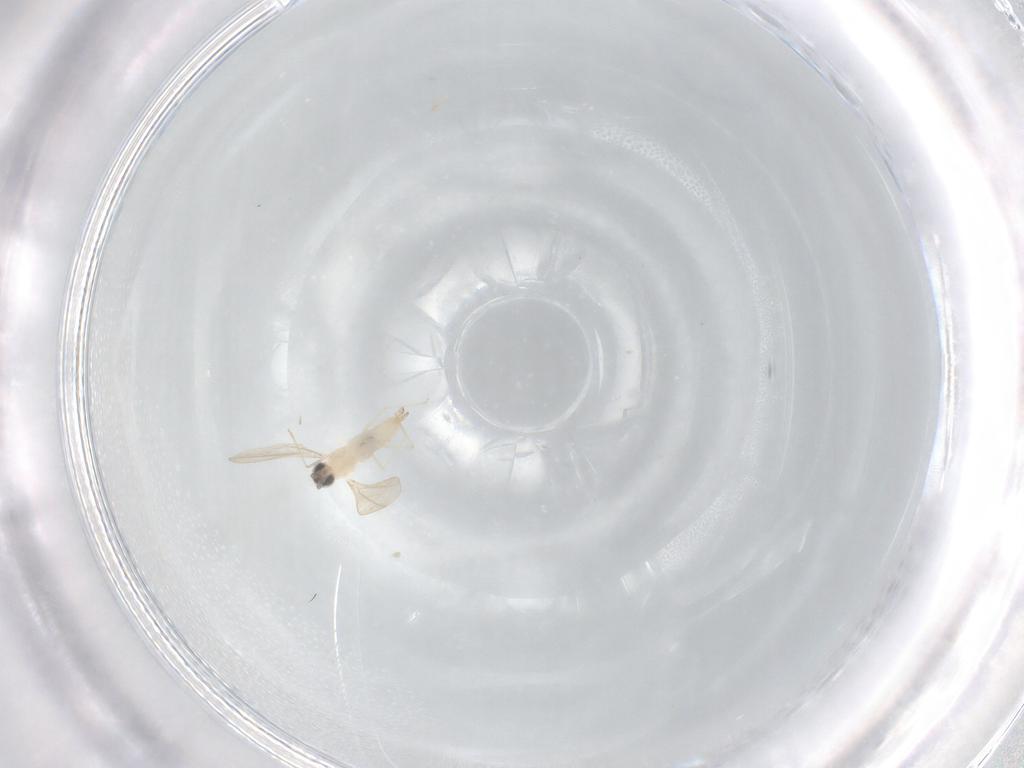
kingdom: Animalia
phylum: Arthropoda
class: Insecta
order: Diptera
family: Cecidomyiidae
